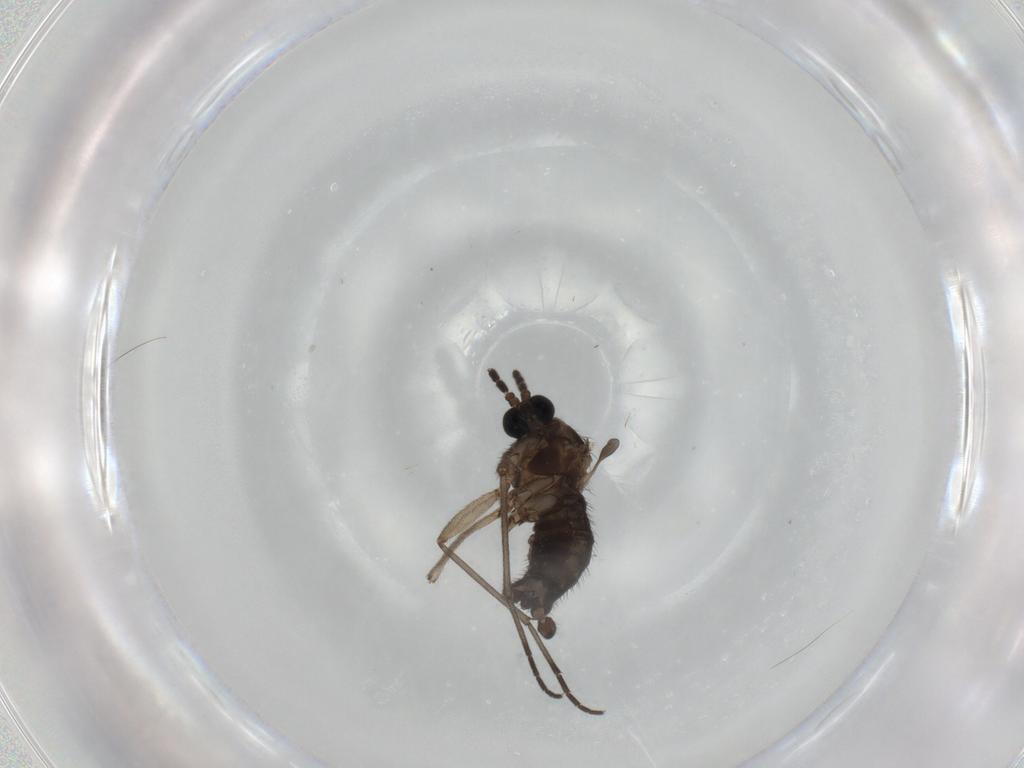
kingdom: Animalia
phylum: Arthropoda
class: Insecta
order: Diptera
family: Sciaridae
